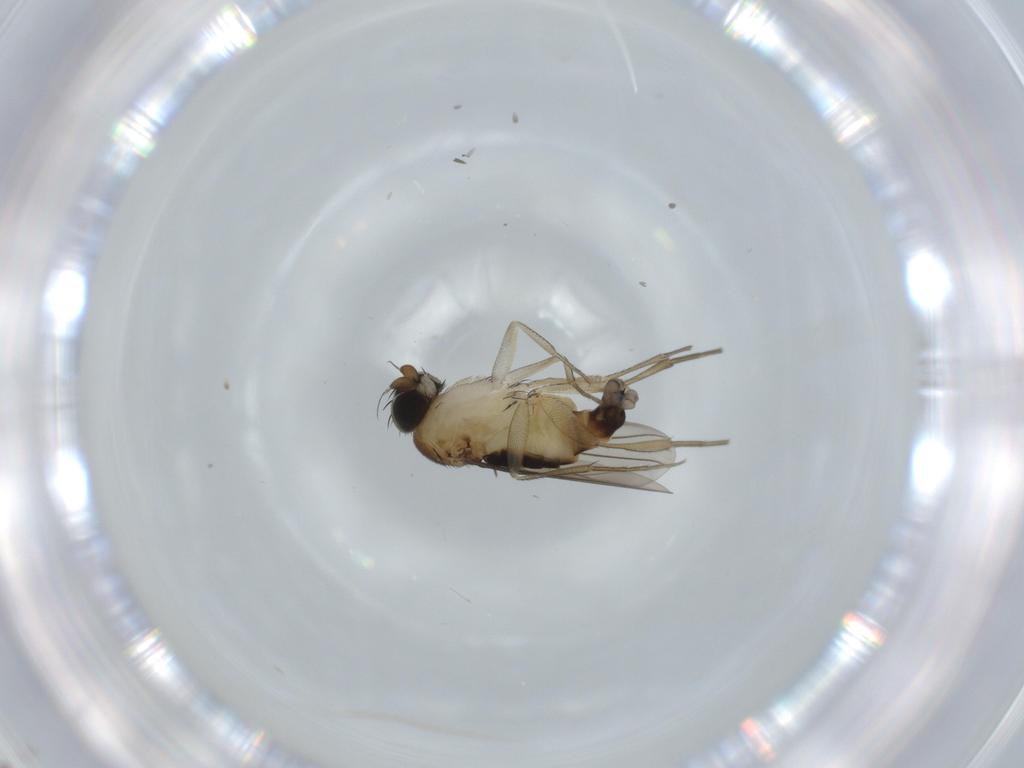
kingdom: Animalia
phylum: Arthropoda
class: Insecta
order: Diptera
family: Phoridae
